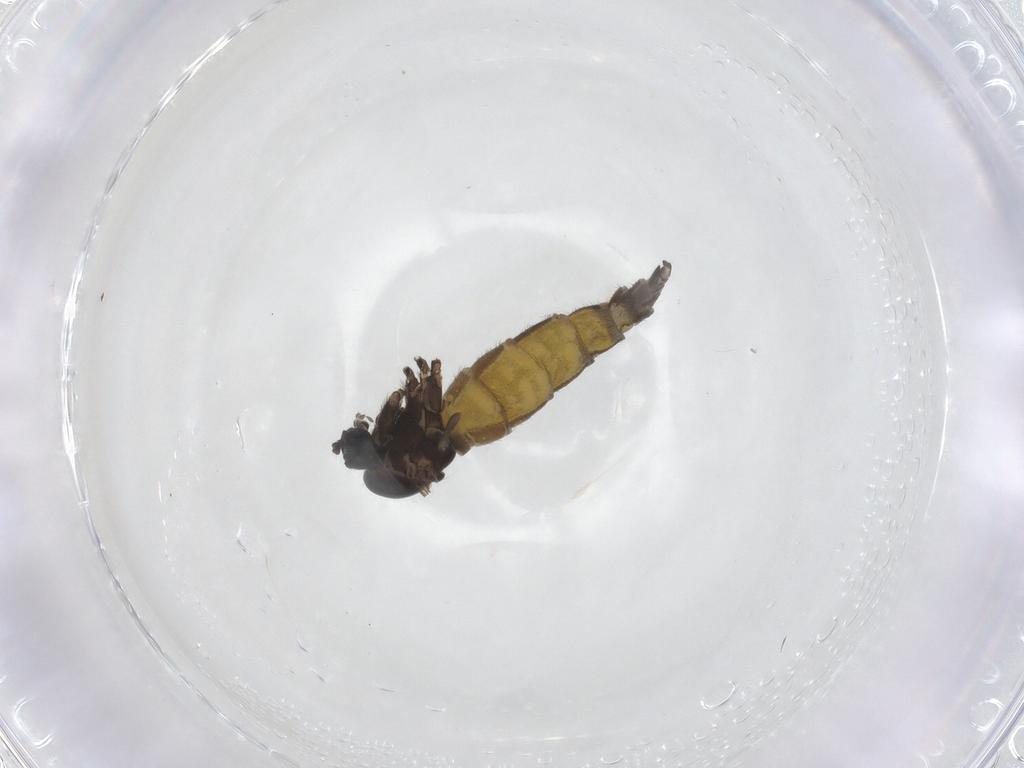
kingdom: Animalia
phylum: Arthropoda
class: Insecta
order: Diptera
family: Sciaridae
